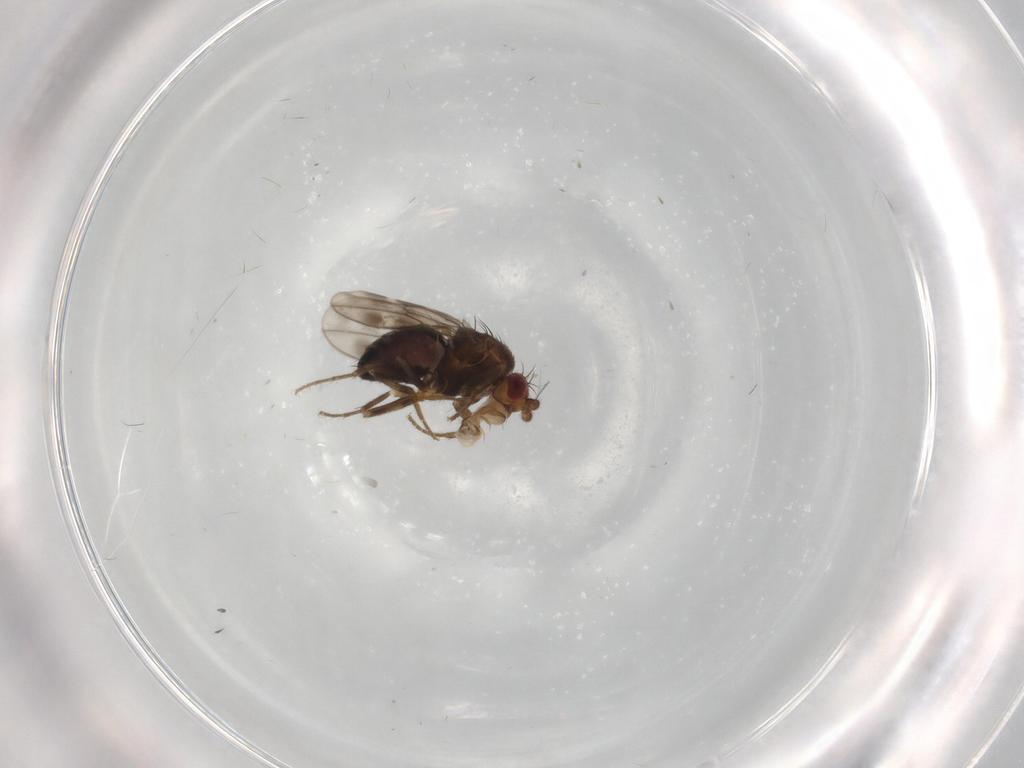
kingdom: Animalia
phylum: Arthropoda
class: Insecta
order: Diptera
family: Sphaeroceridae
